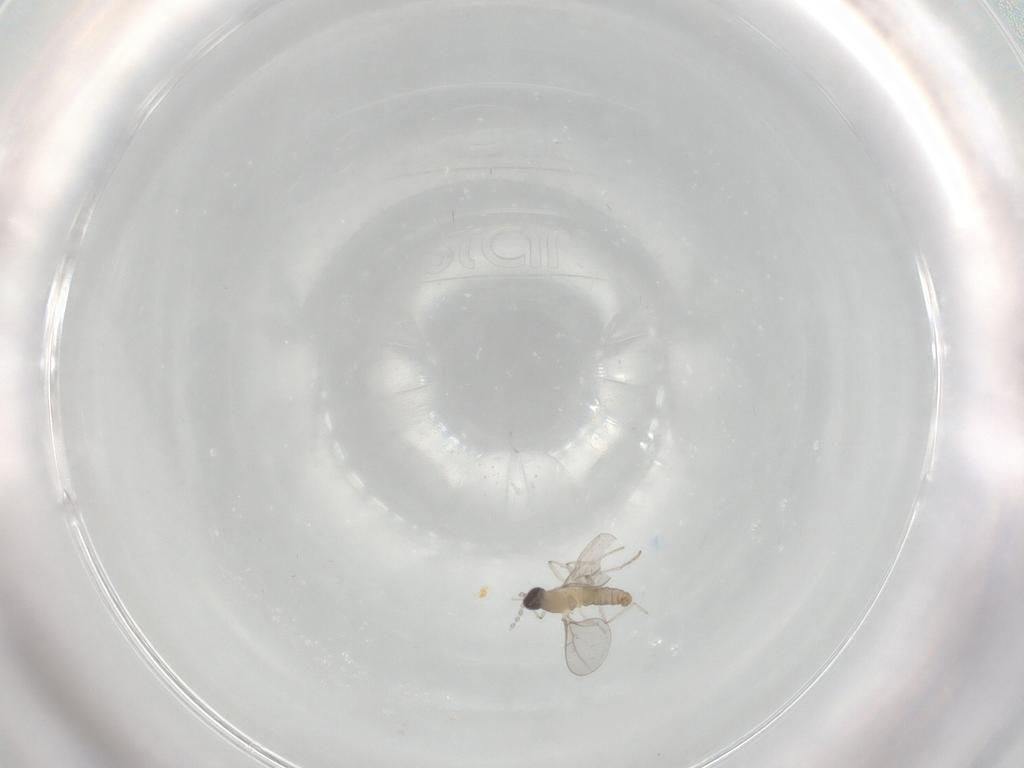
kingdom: Animalia
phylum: Arthropoda
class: Insecta
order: Diptera
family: Cecidomyiidae
